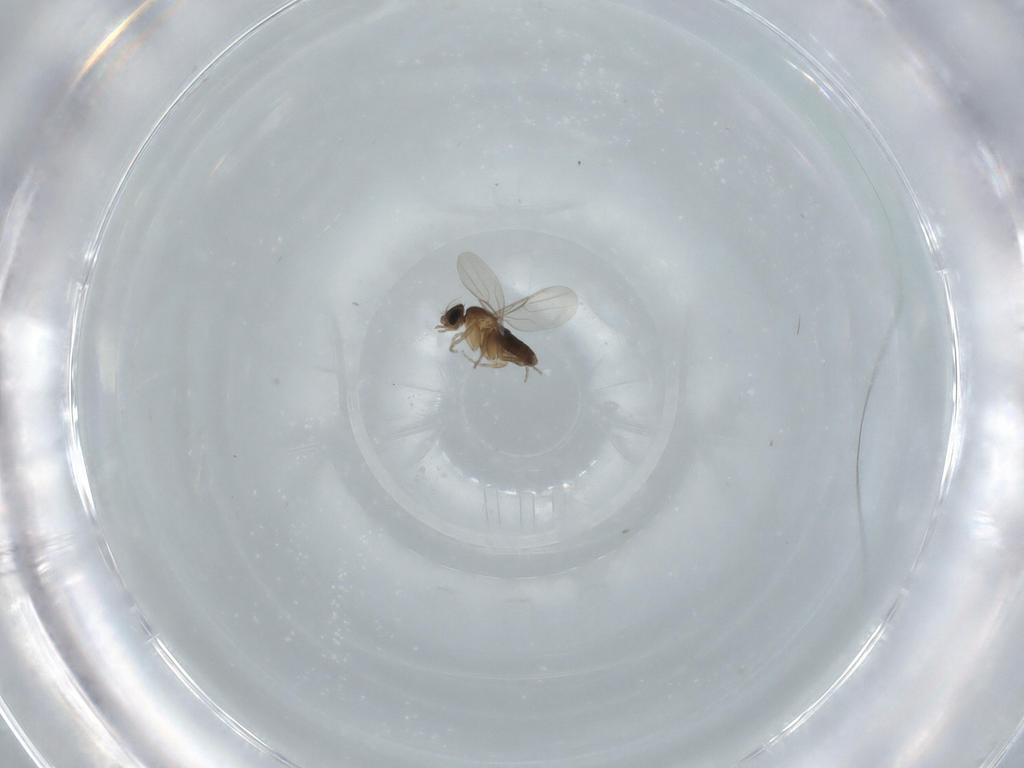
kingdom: Animalia
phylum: Arthropoda
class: Insecta
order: Diptera
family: Phoridae
